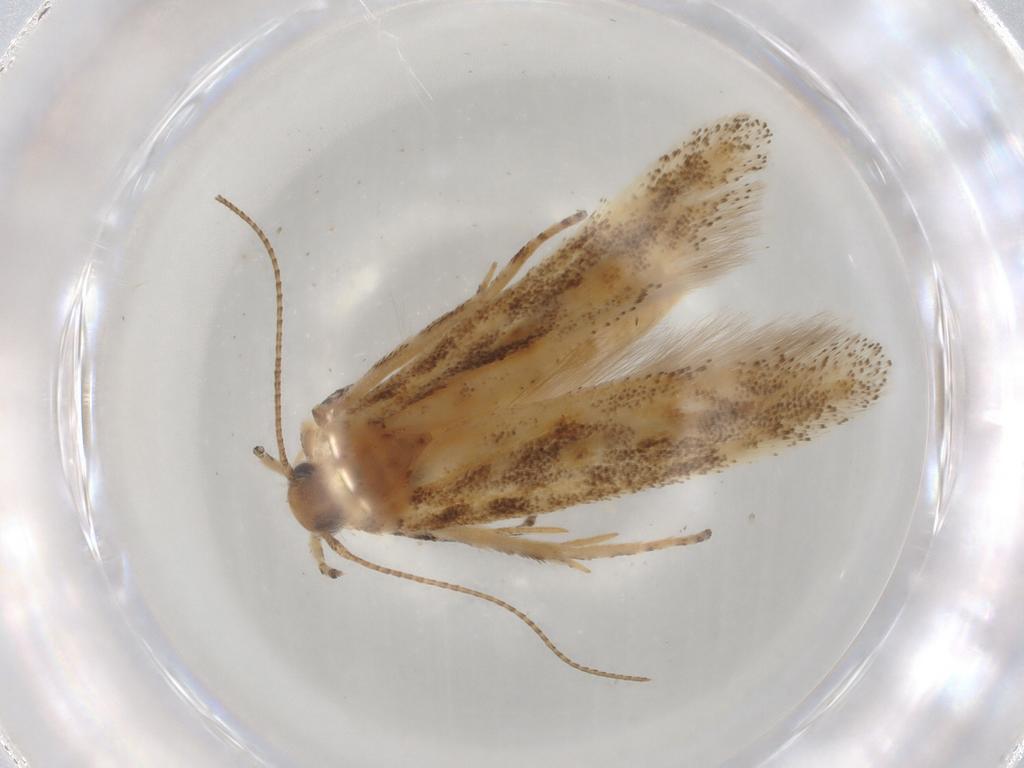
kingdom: Animalia
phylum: Arthropoda
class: Insecta
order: Lepidoptera
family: Gelechiidae
